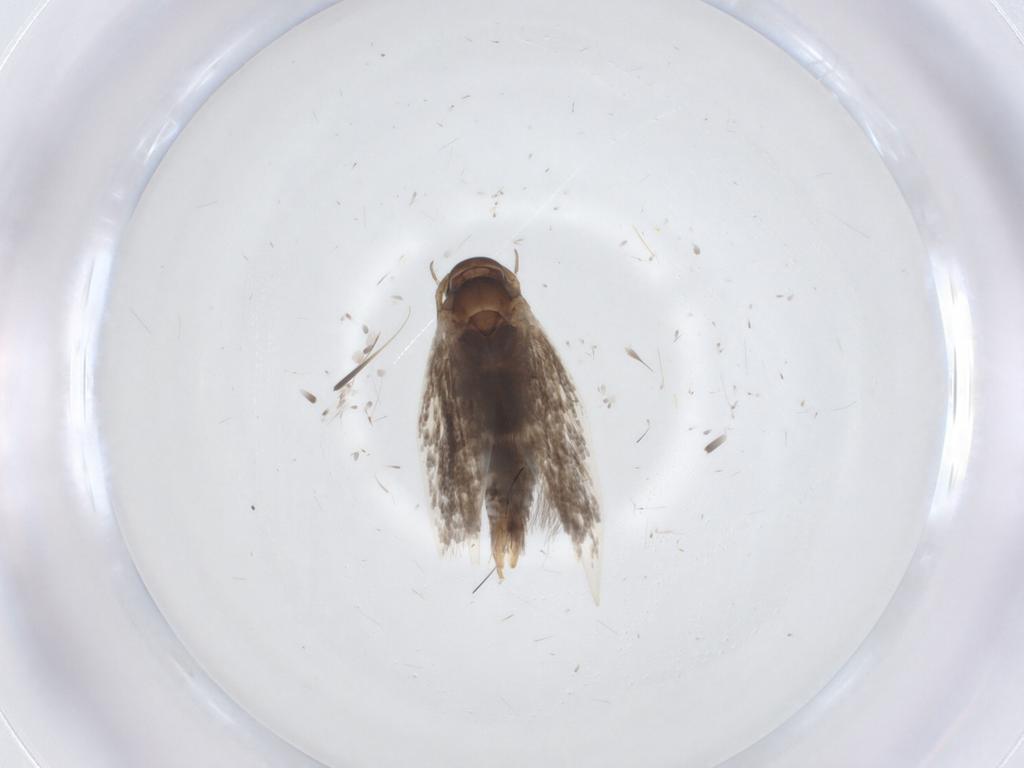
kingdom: Animalia
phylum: Arthropoda
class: Insecta
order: Lepidoptera
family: Elachistidae
